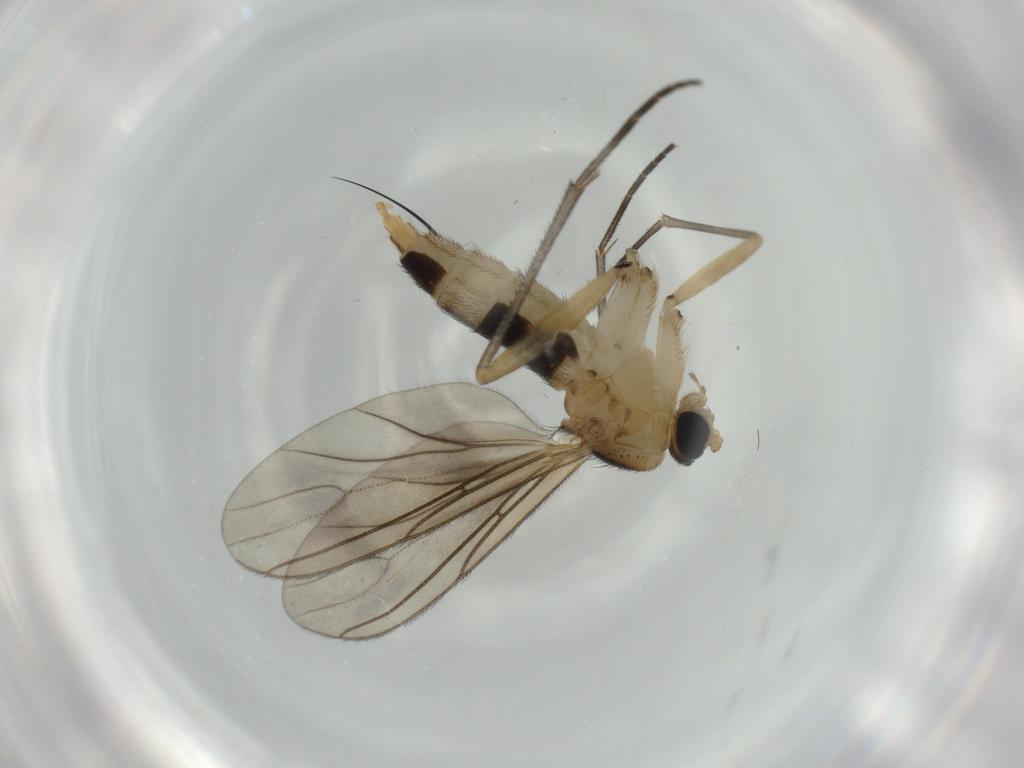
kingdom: Animalia
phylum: Arthropoda
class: Insecta
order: Diptera
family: Sciaridae
